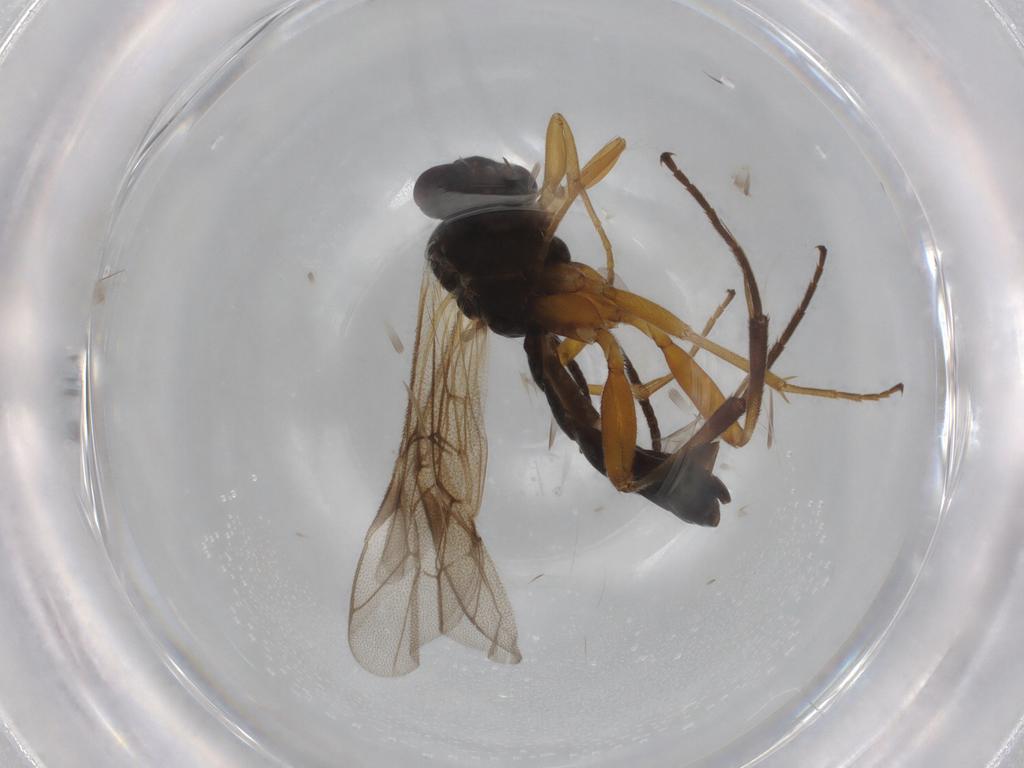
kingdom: Animalia
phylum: Arthropoda
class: Insecta
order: Hymenoptera
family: Ichneumonidae
